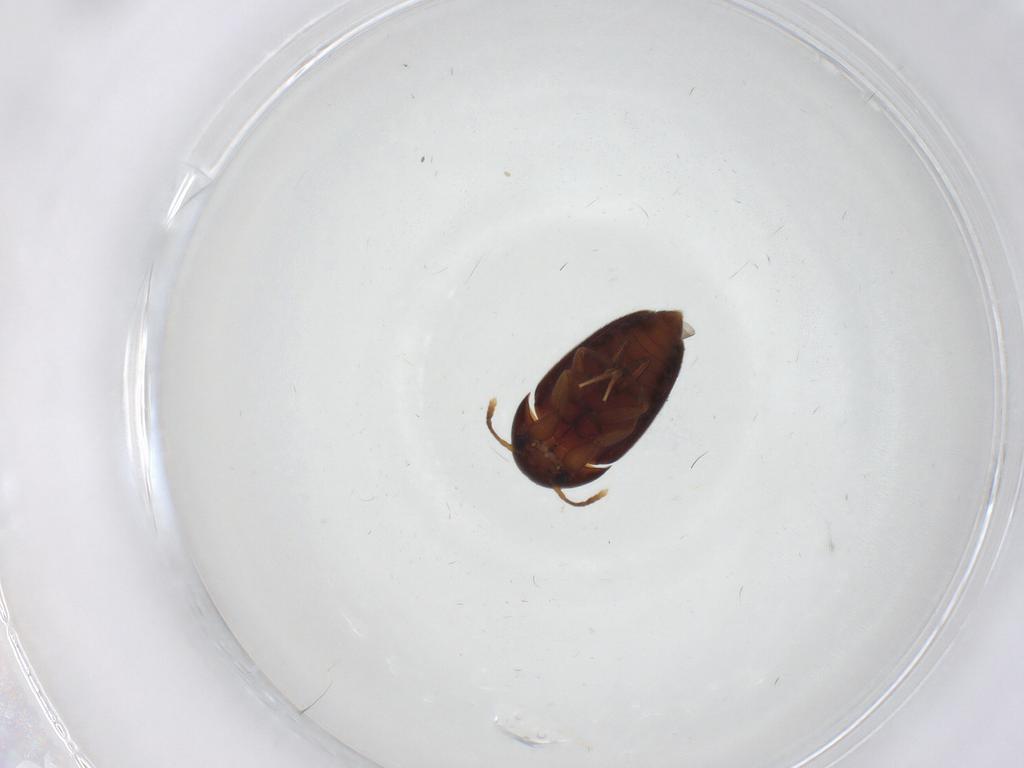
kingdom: Animalia
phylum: Arthropoda
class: Insecta
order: Coleoptera
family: Leiodidae
